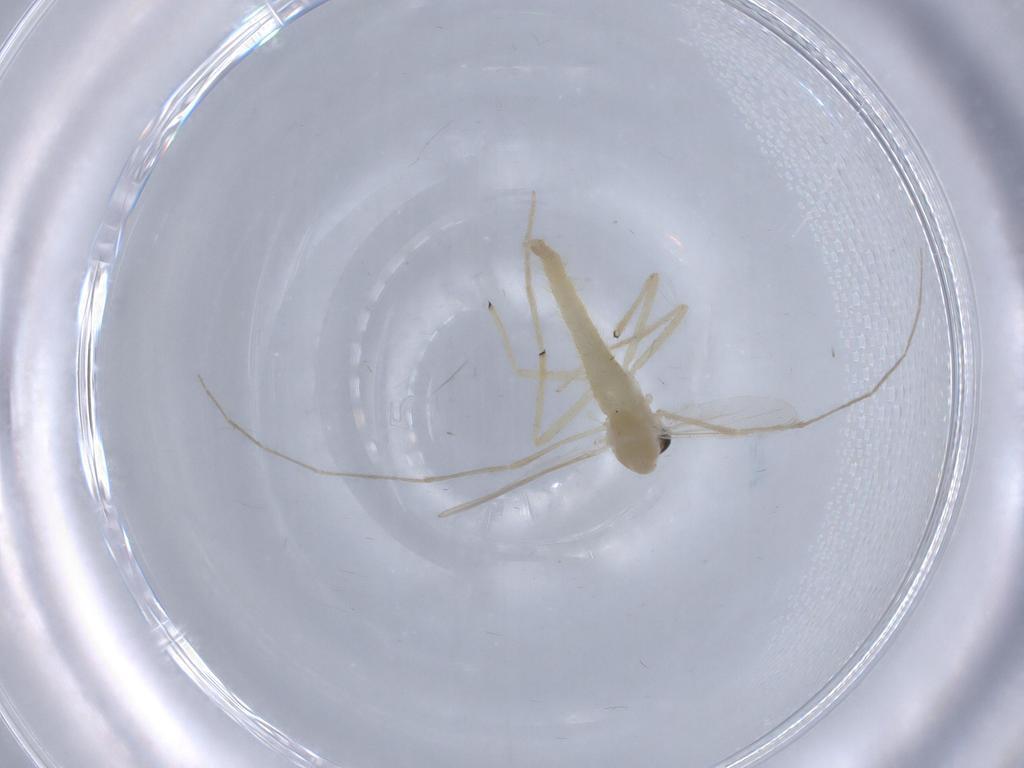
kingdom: Animalia
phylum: Arthropoda
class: Insecta
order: Diptera
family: Chironomidae
